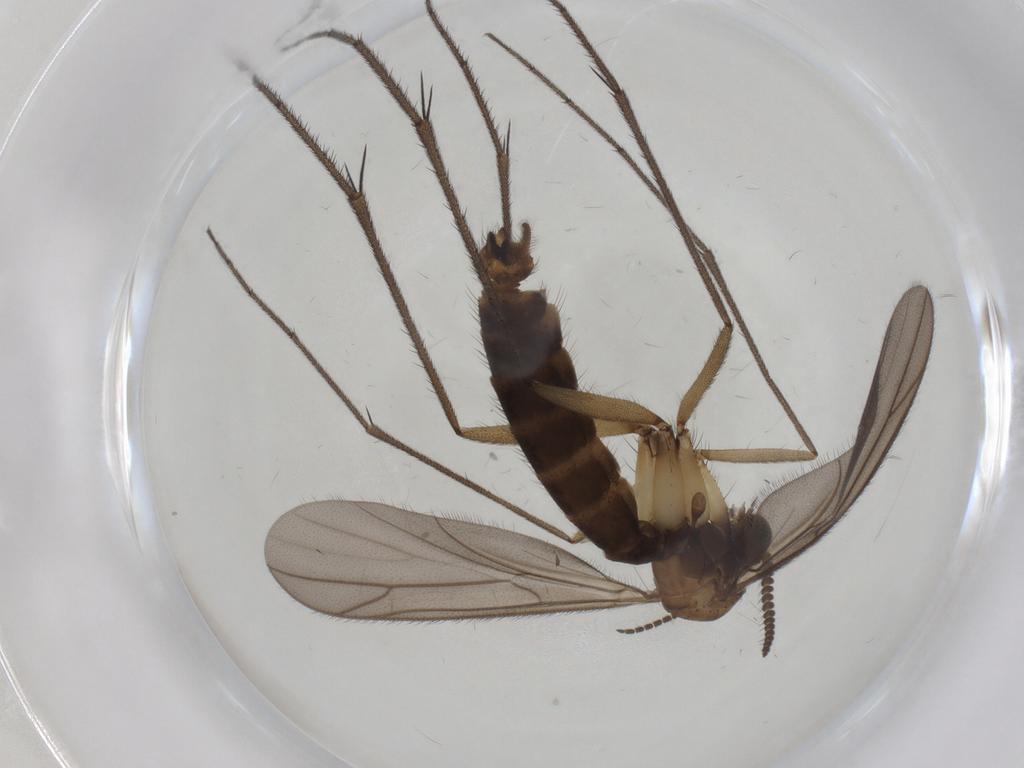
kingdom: Animalia
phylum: Arthropoda
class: Insecta
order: Diptera
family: Ditomyiidae
